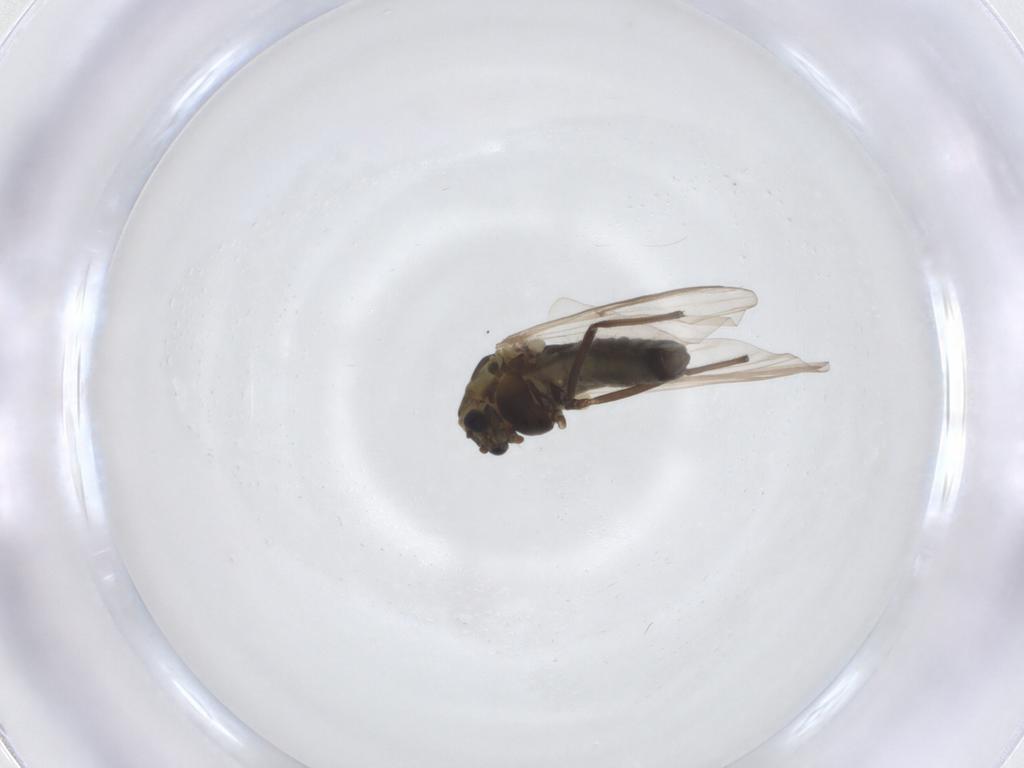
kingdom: Animalia
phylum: Arthropoda
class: Insecta
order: Diptera
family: Chironomidae
